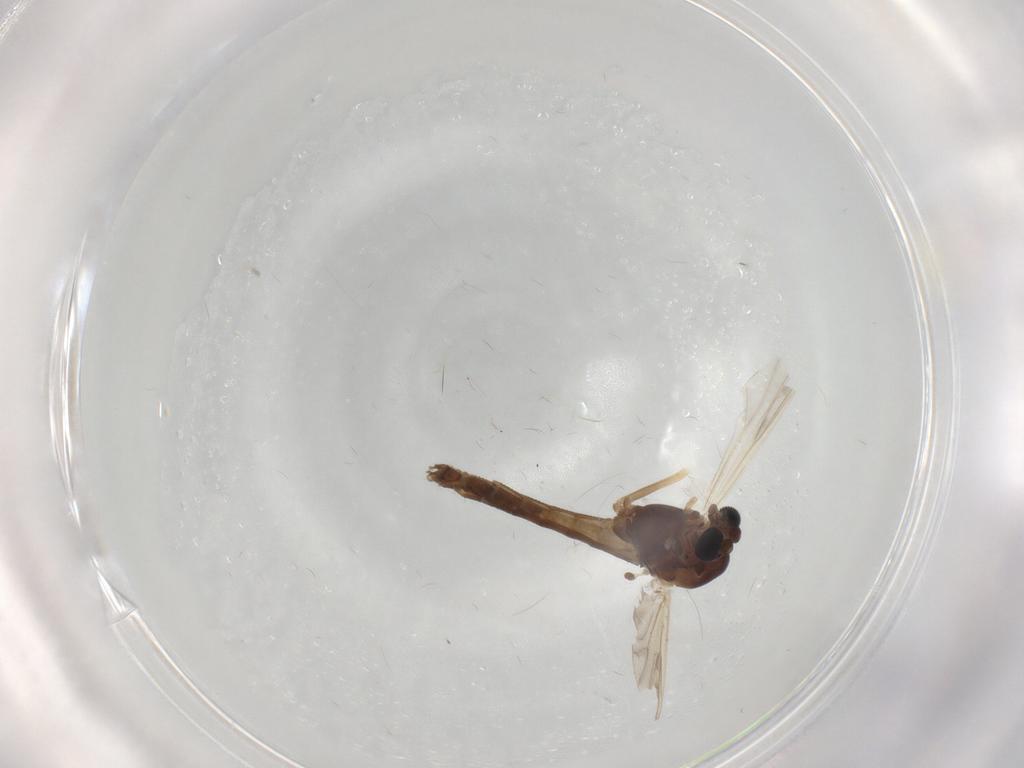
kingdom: Animalia
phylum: Arthropoda
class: Insecta
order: Diptera
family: Chironomidae
